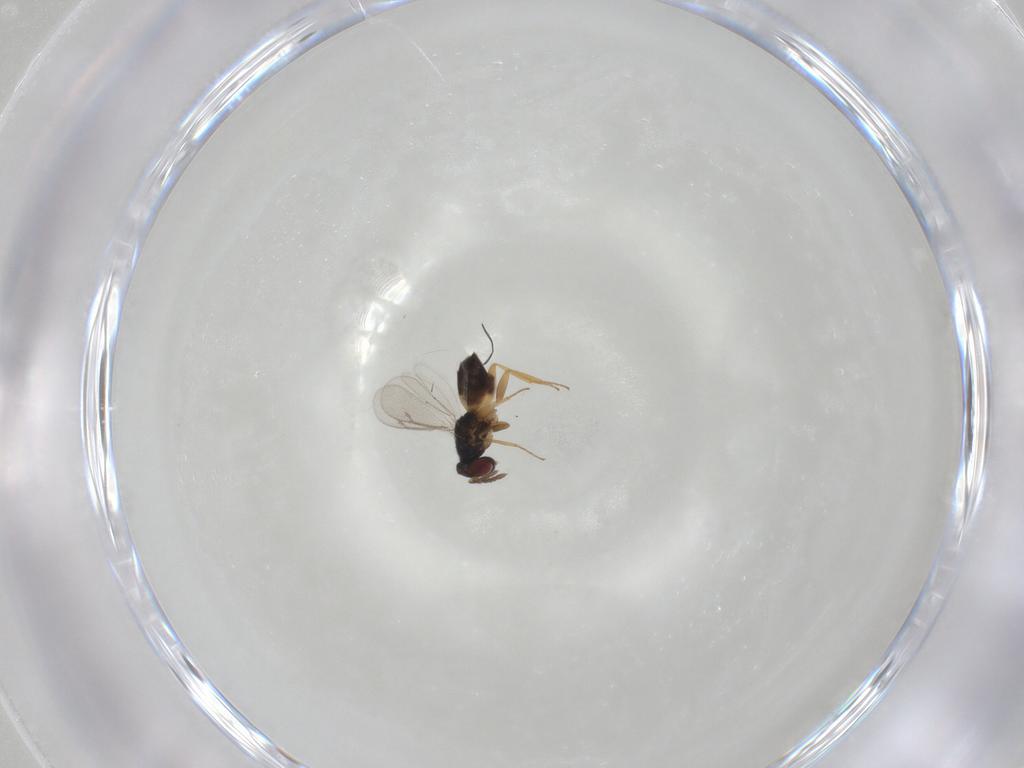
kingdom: Animalia
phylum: Arthropoda
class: Insecta
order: Hymenoptera
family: Eulophidae
